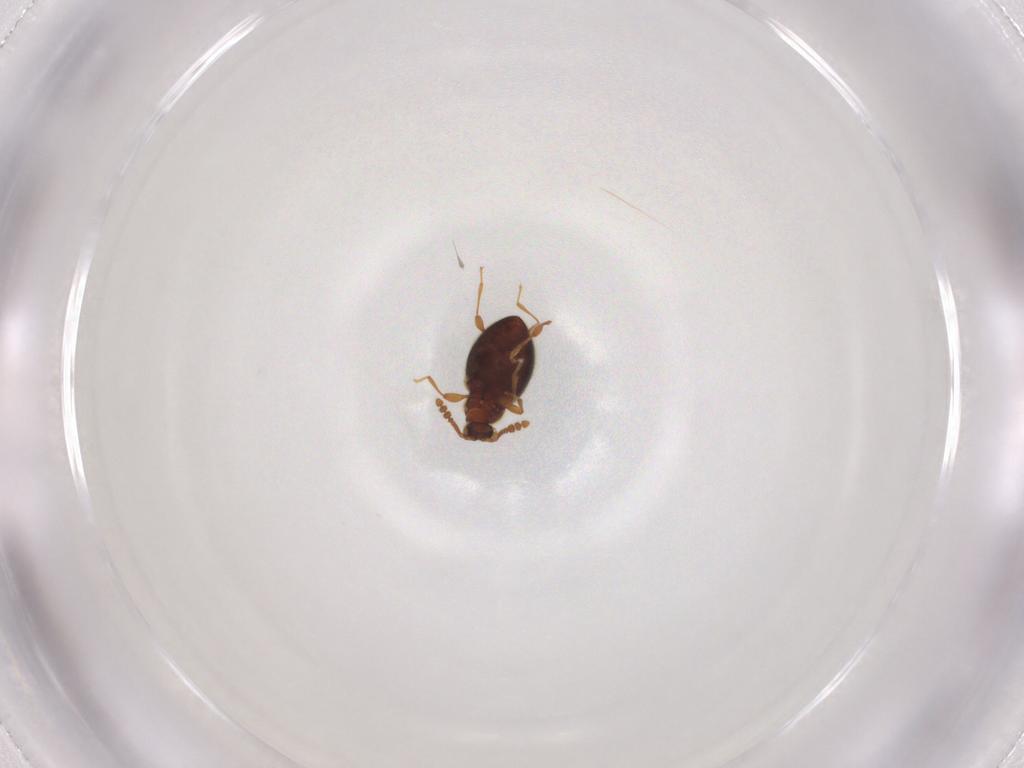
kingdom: Animalia
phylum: Arthropoda
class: Insecta
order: Coleoptera
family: Staphylinidae
